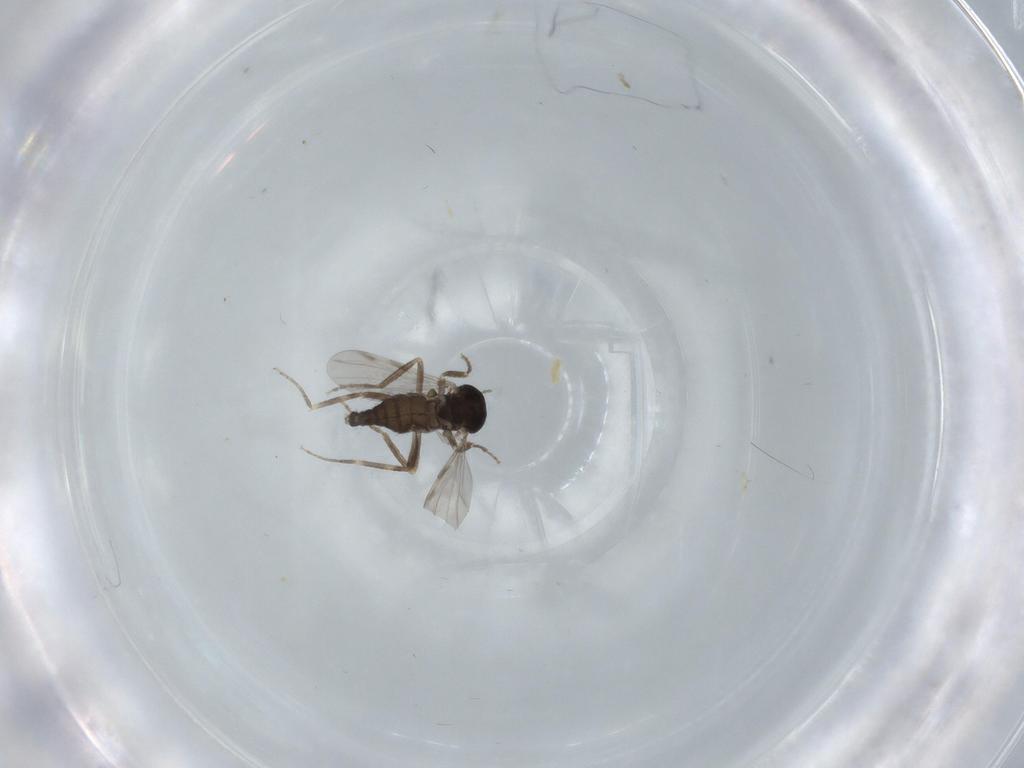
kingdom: Animalia
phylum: Arthropoda
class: Insecta
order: Diptera
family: Ceratopogonidae
